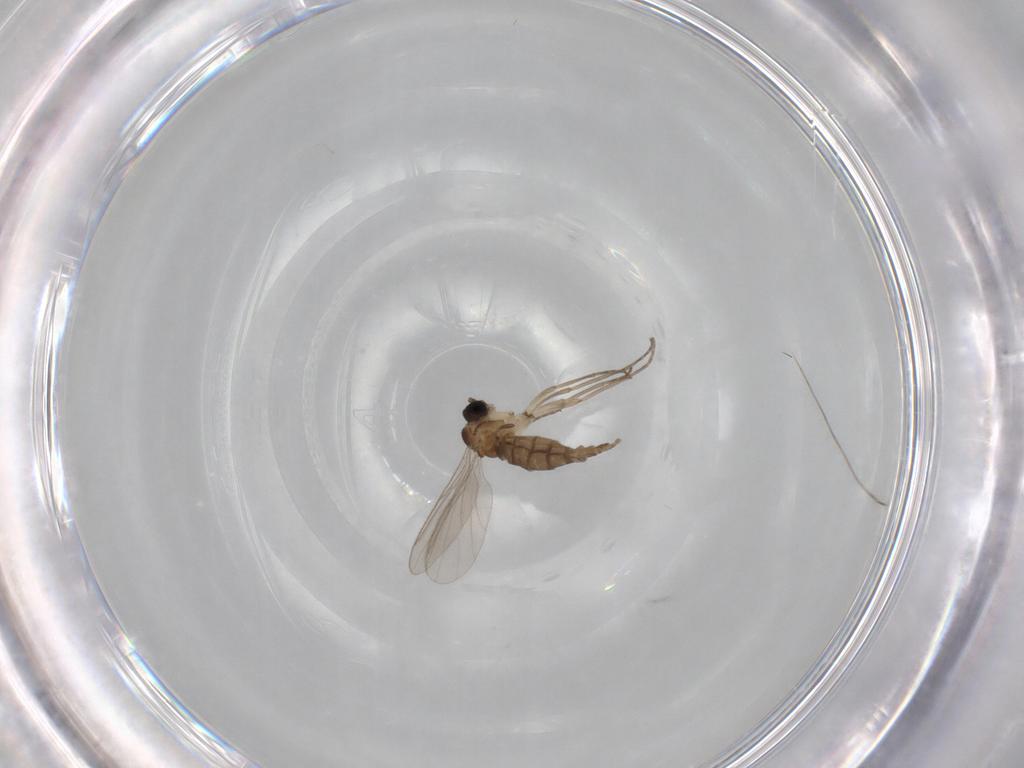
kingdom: Animalia
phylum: Arthropoda
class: Insecta
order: Diptera
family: Sciaridae
